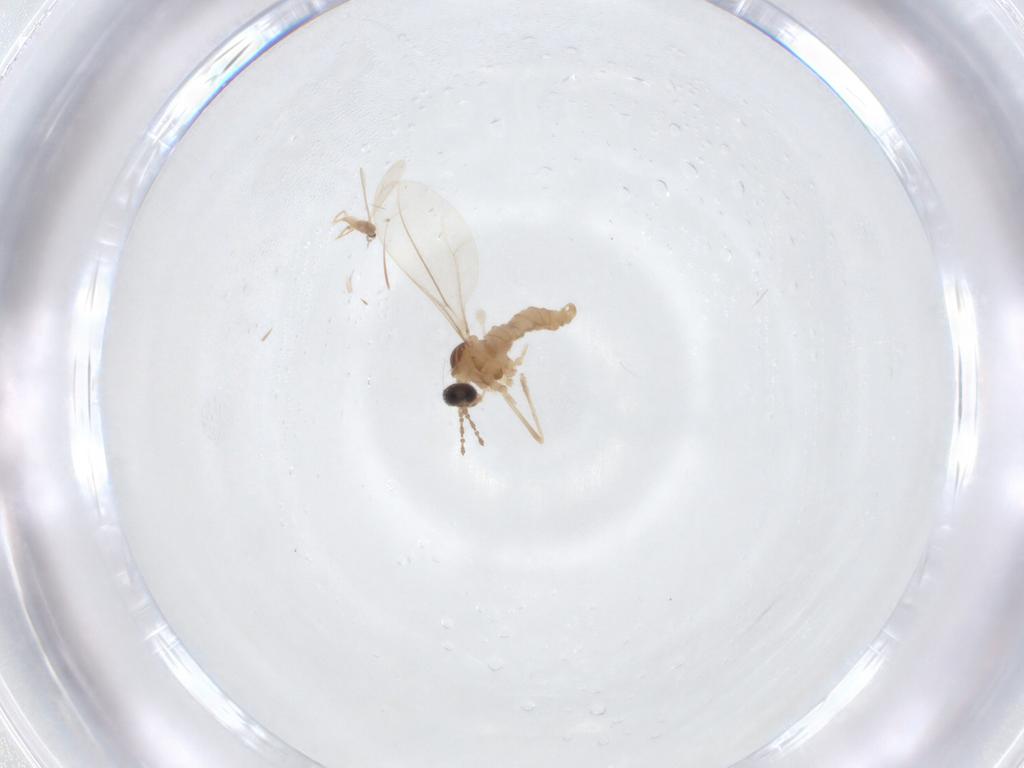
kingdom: Animalia
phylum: Arthropoda
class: Insecta
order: Diptera
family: Cecidomyiidae
